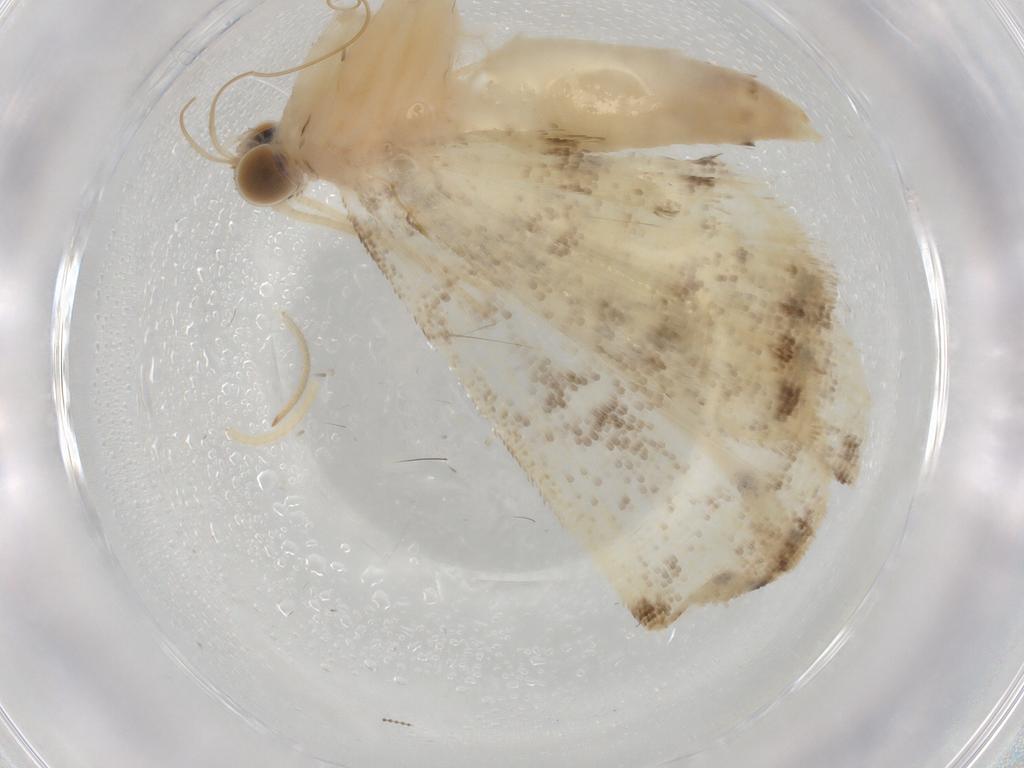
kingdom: Animalia
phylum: Arthropoda
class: Insecta
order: Lepidoptera
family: Crambidae
